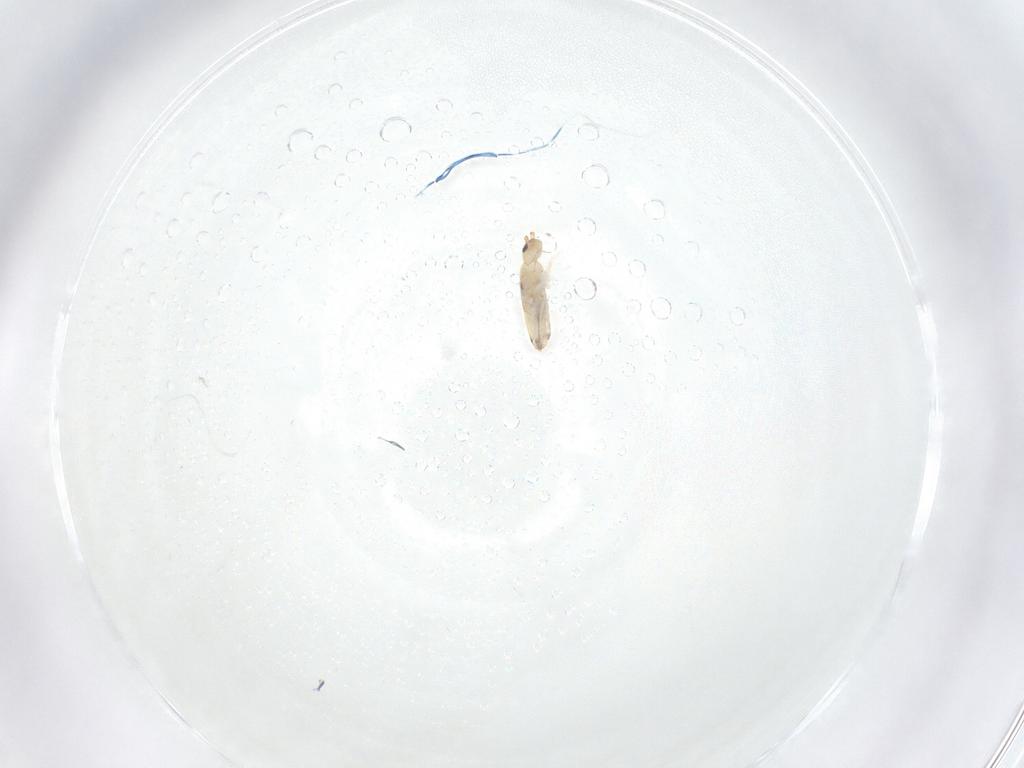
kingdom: Animalia
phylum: Arthropoda
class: Collembola
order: Entomobryomorpha
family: Entomobryidae
